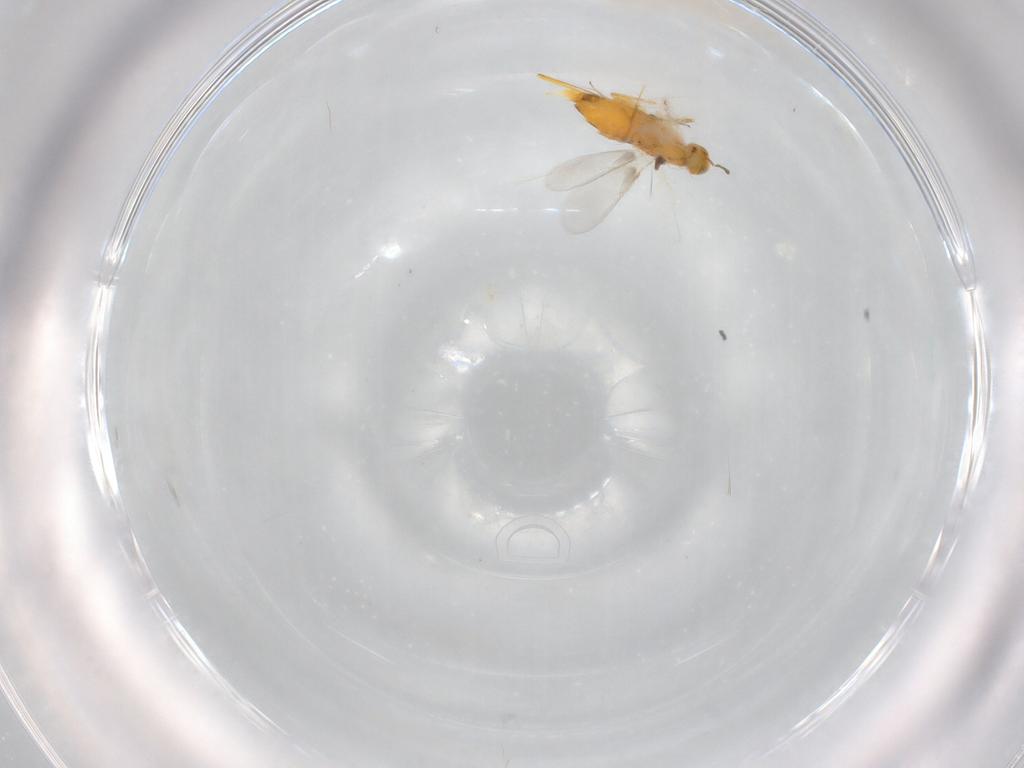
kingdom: Animalia
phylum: Arthropoda
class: Insecta
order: Hymenoptera
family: Aphelinidae
